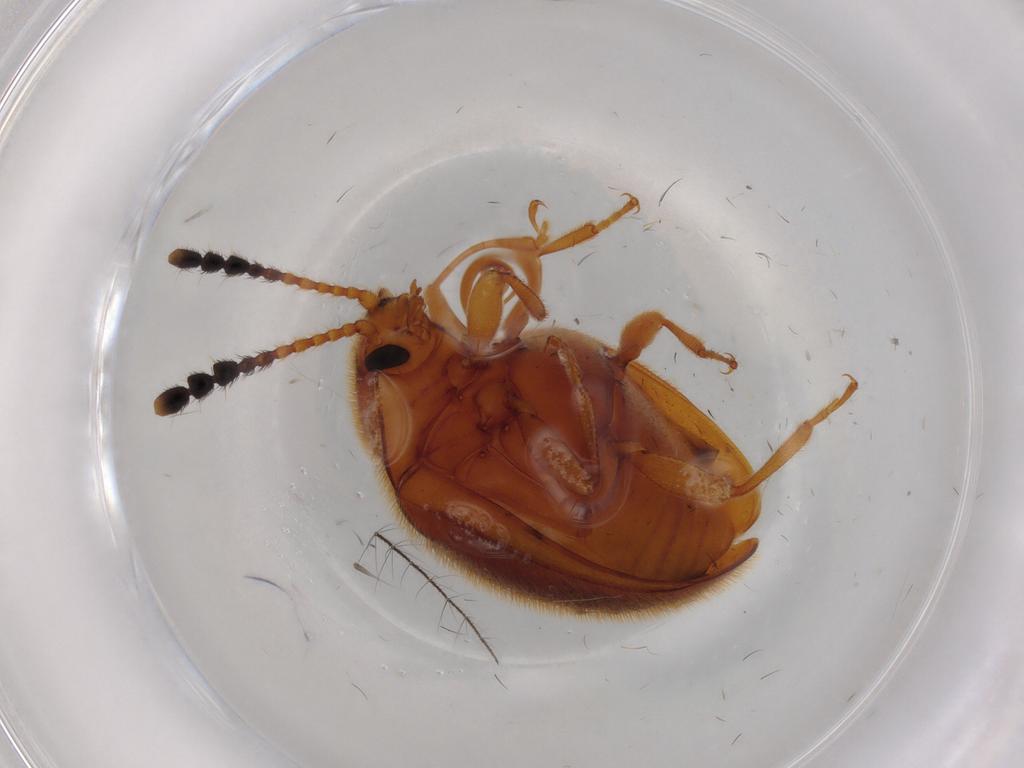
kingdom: Animalia
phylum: Arthropoda
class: Insecta
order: Coleoptera
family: Endomychidae
